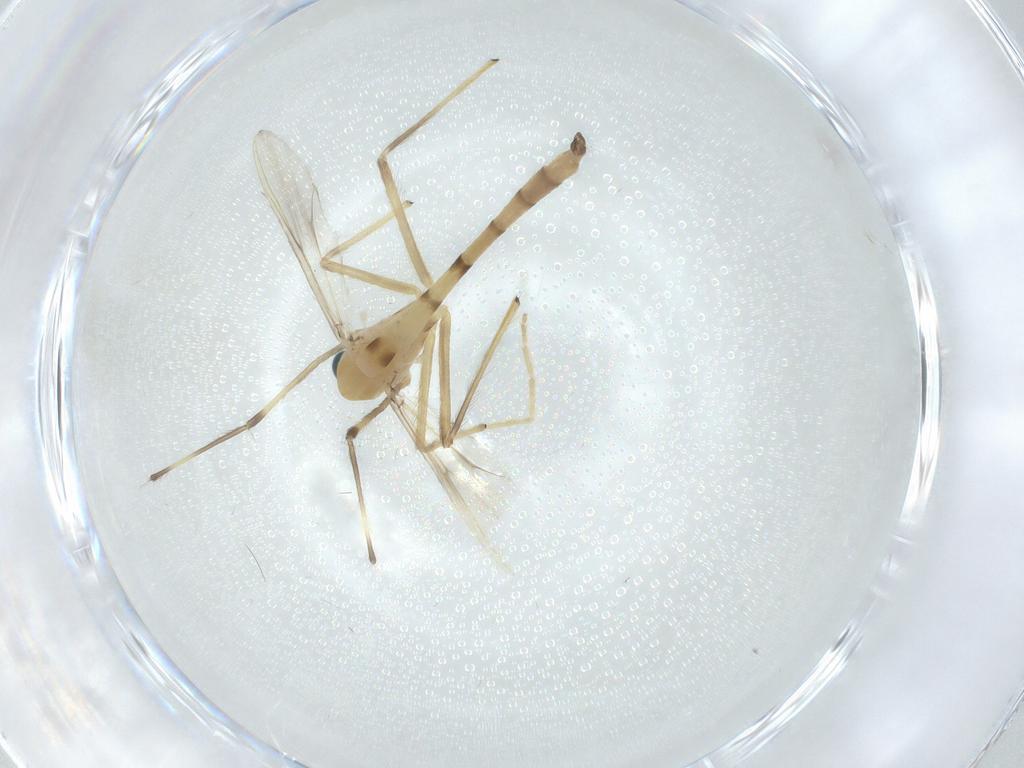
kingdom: Animalia
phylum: Arthropoda
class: Insecta
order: Diptera
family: Chironomidae
